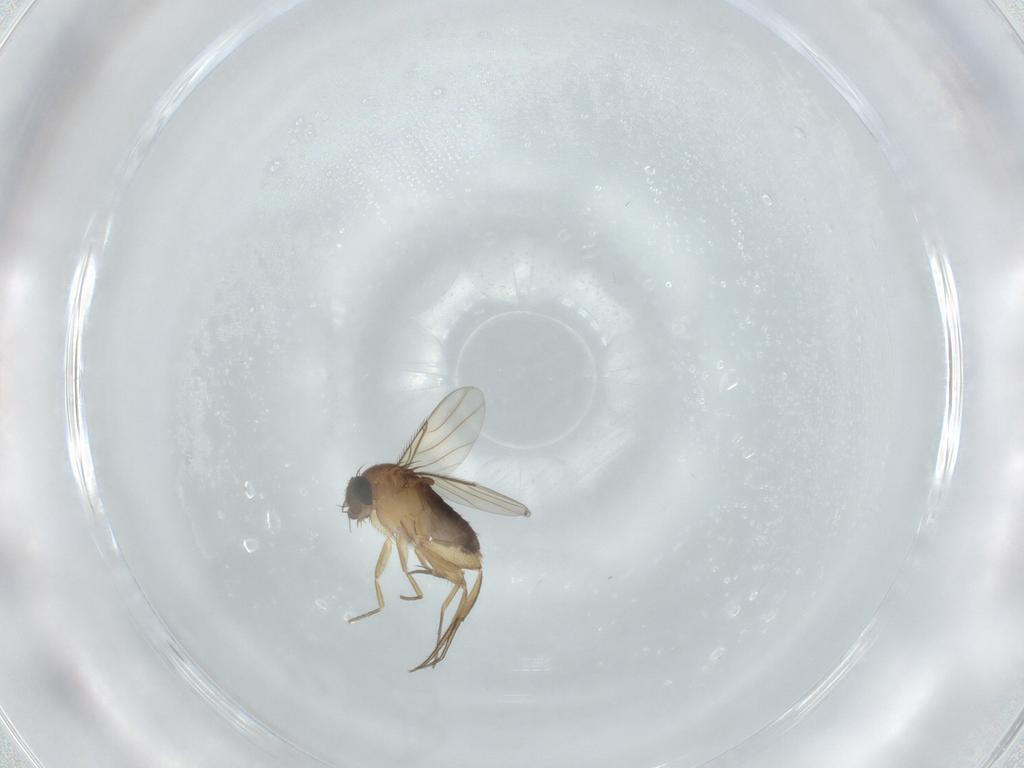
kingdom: Animalia
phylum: Arthropoda
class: Insecta
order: Diptera
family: Phoridae
